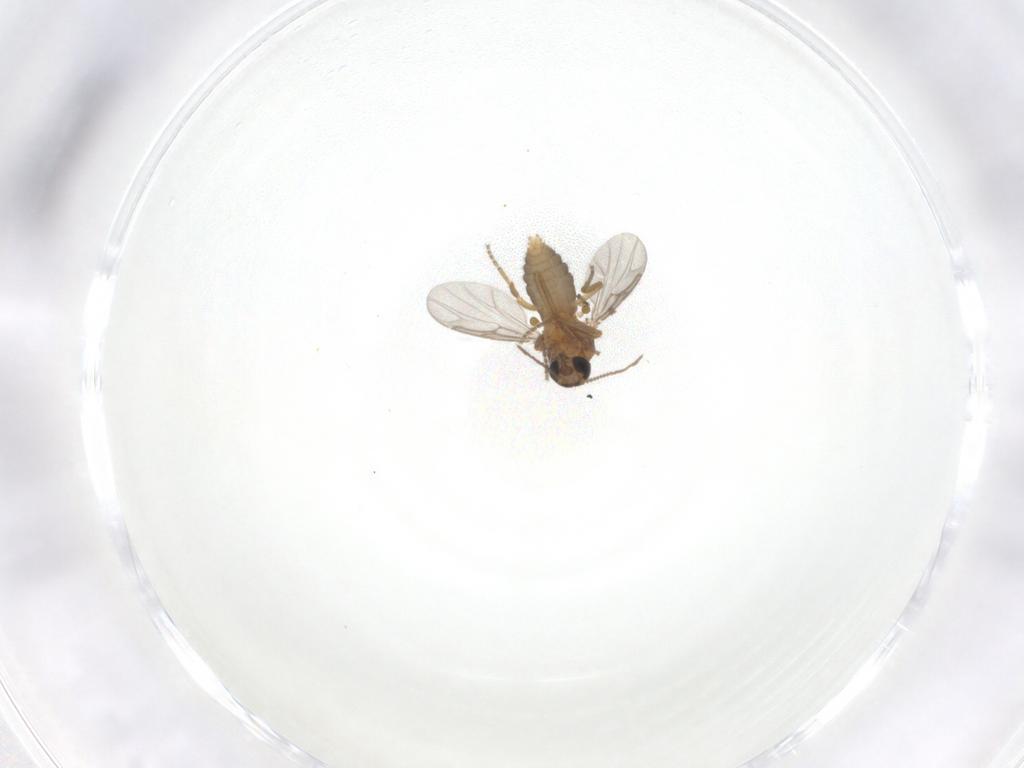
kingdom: Animalia
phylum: Arthropoda
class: Insecta
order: Diptera
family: Ceratopogonidae
